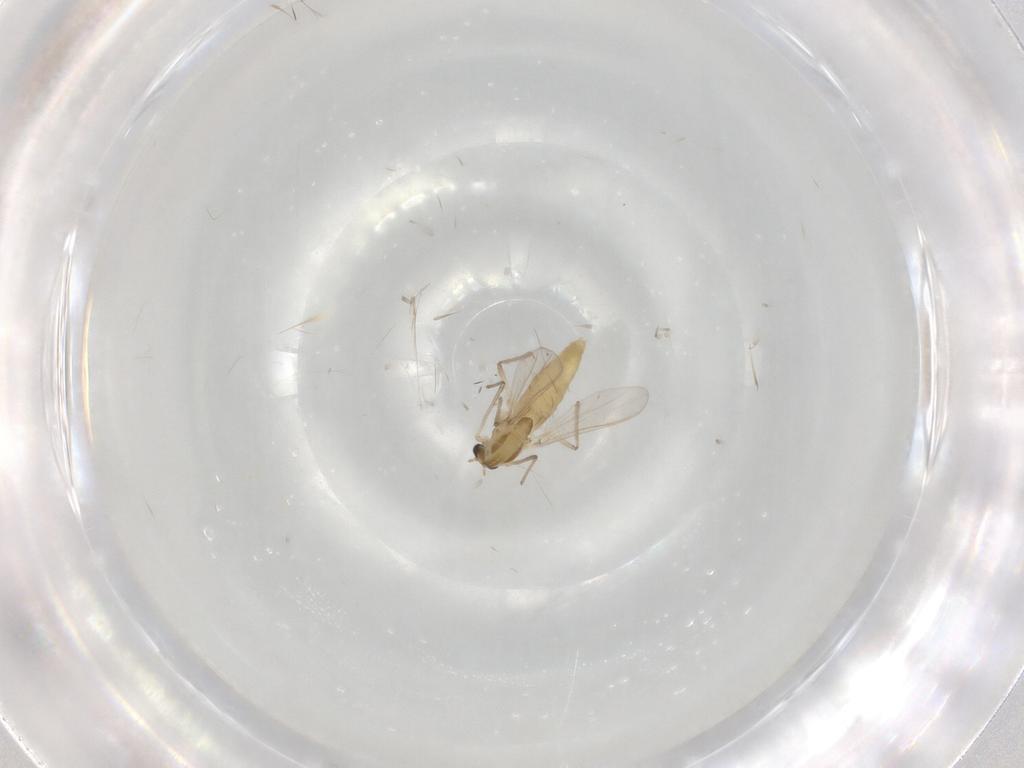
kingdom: Animalia
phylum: Arthropoda
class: Insecta
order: Diptera
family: Chironomidae
